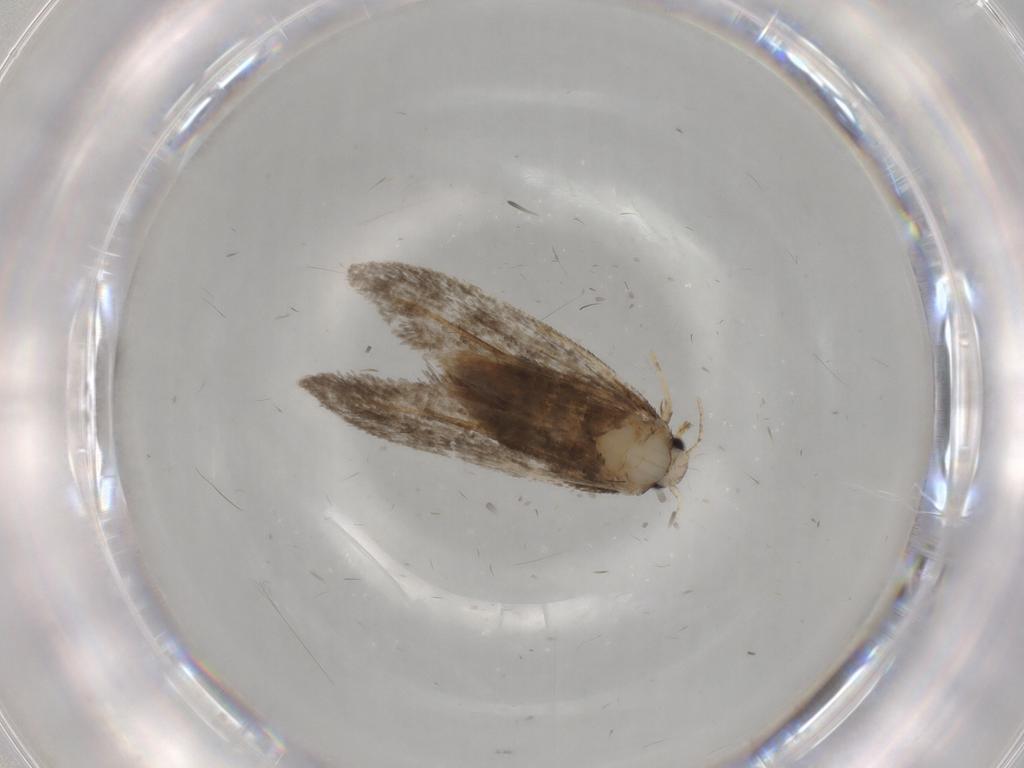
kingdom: Animalia
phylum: Arthropoda
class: Insecta
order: Lepidoptera
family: Psychidae
